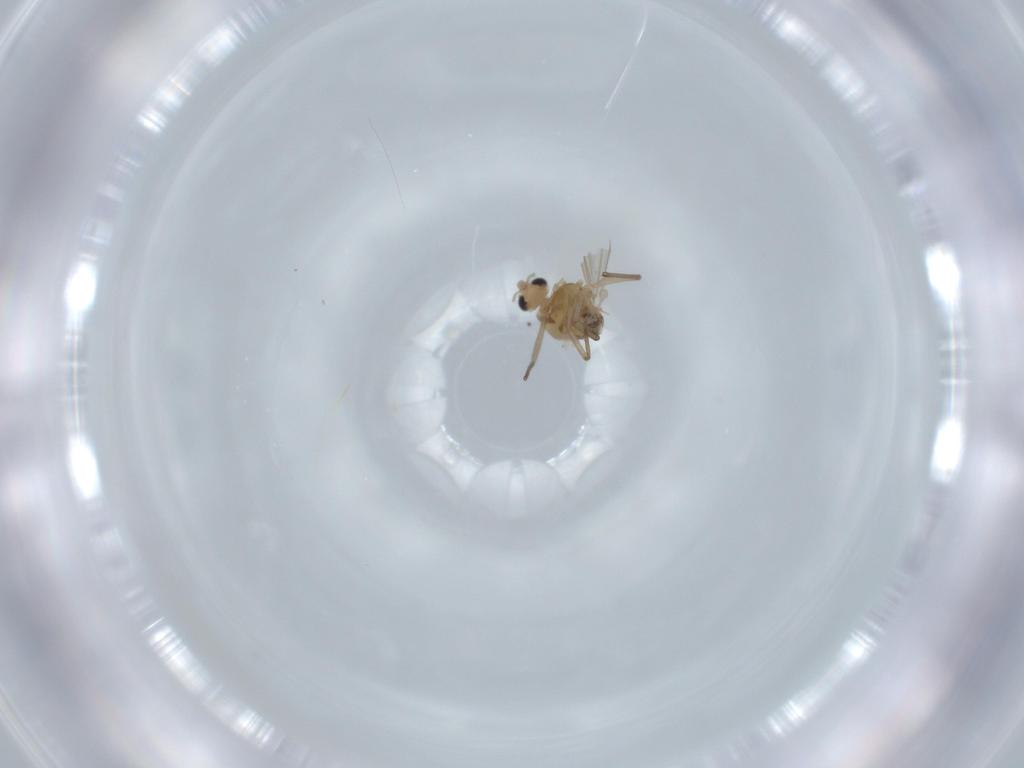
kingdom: Animalia
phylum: Arthropoda
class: Insecta
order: Diptera
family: Chironomidae
